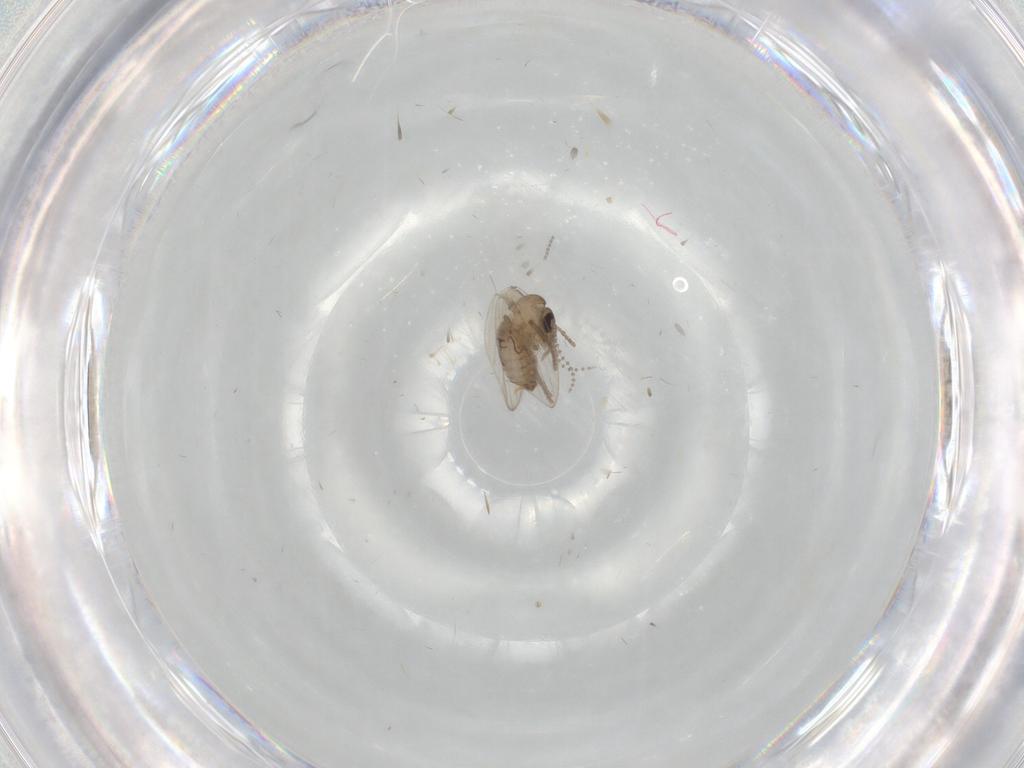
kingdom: Animalia
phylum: Arthropoda
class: Insecta
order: Diptera
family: Psychodidae
